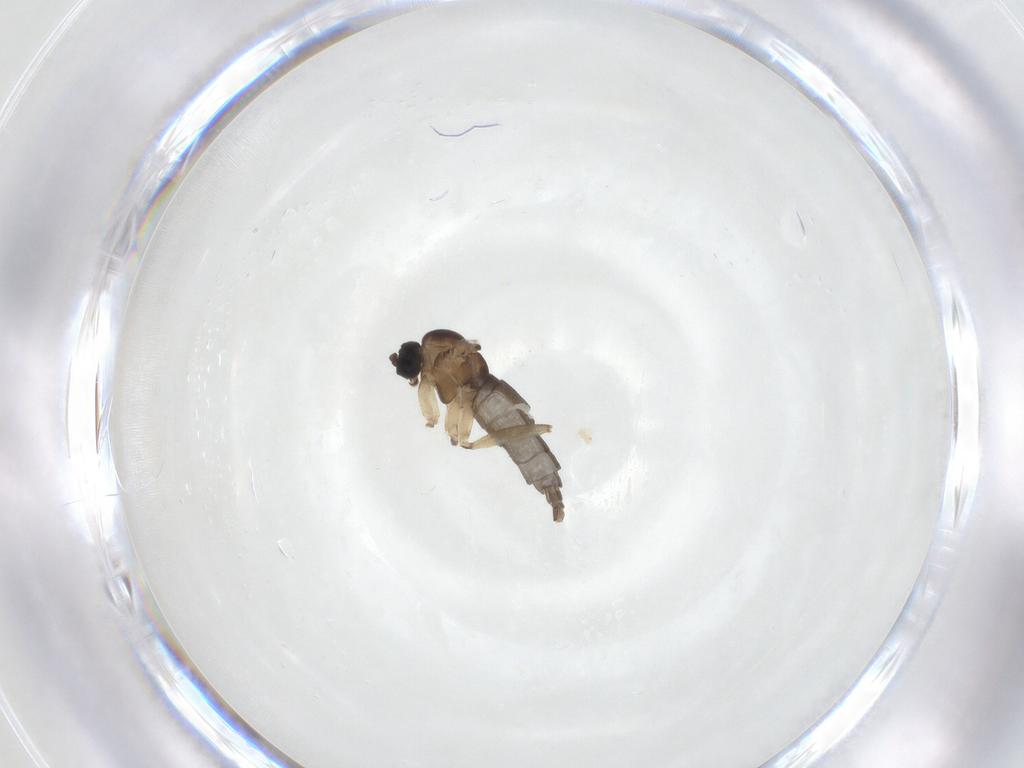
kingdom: Animalia
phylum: Arthropoda
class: Insecta
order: Diptera
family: Sciaridae
